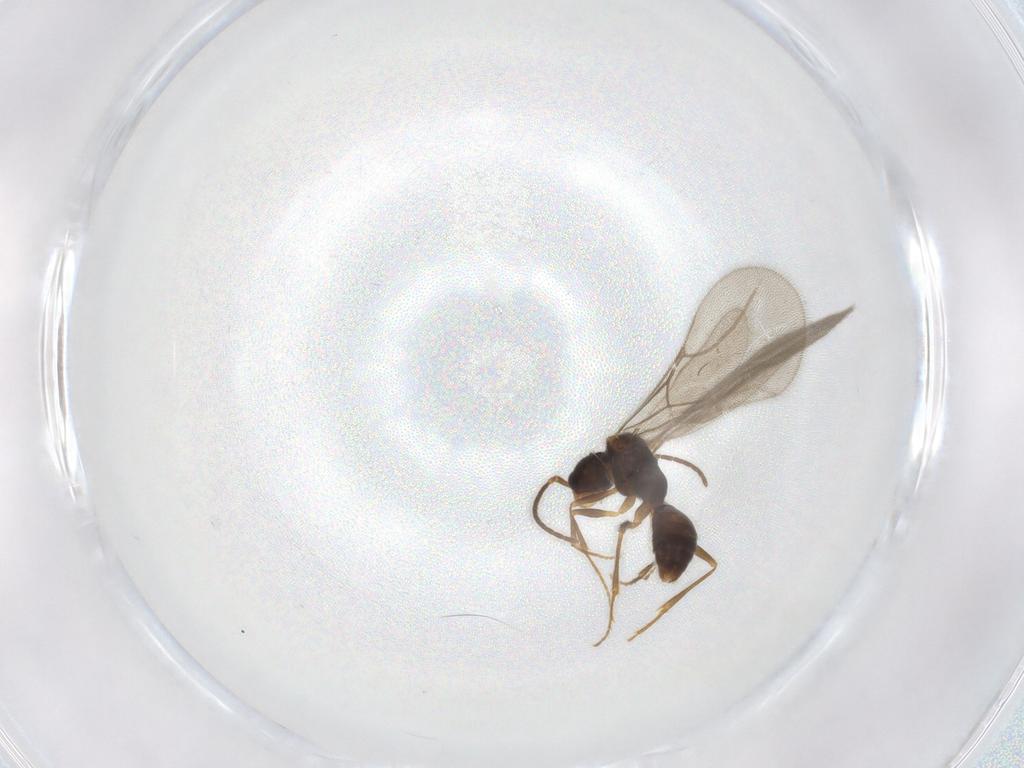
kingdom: Animalia
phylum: Arthropoda
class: Insecta
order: Hymenoptera
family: Bethylidae
